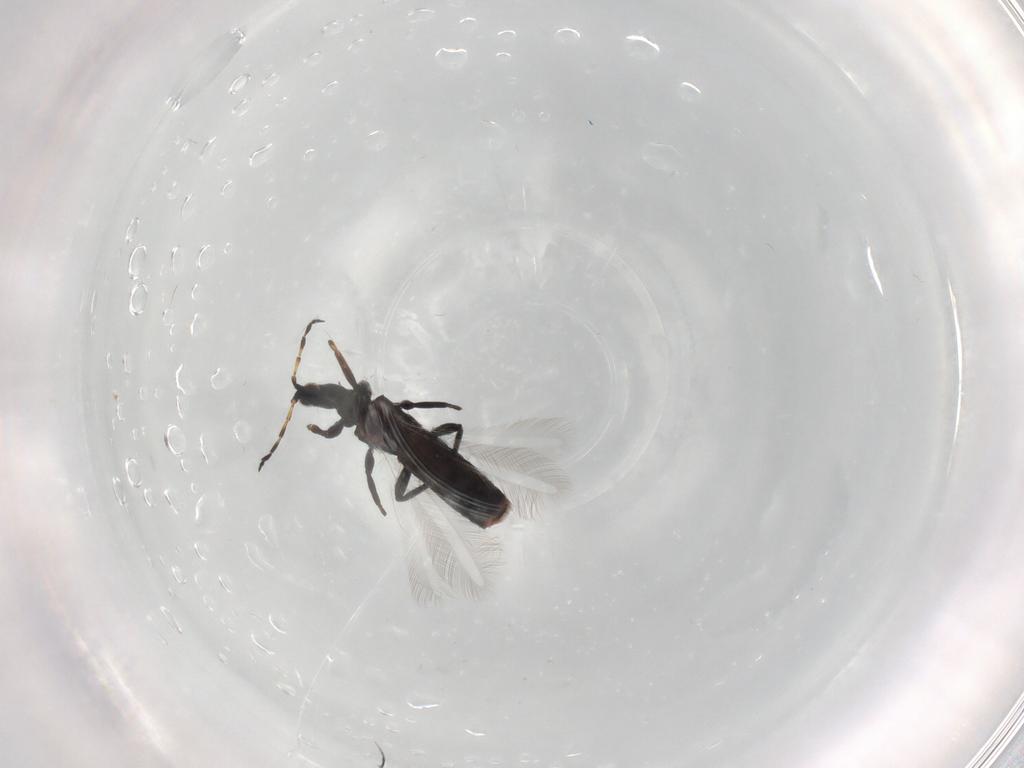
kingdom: Animalia
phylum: Arthropoda
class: Insecta
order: Thysanoptera
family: Phlaeothripidae
